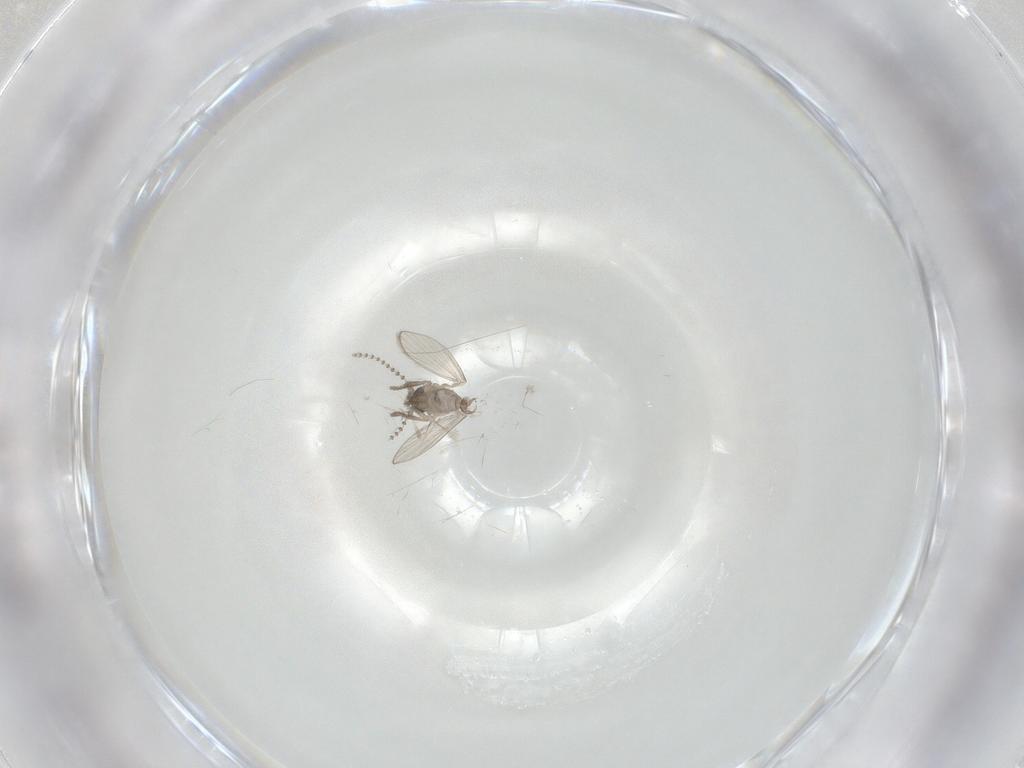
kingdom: Animalia
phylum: Arthropoda
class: Insecta
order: Diptera
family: Psychodidae
